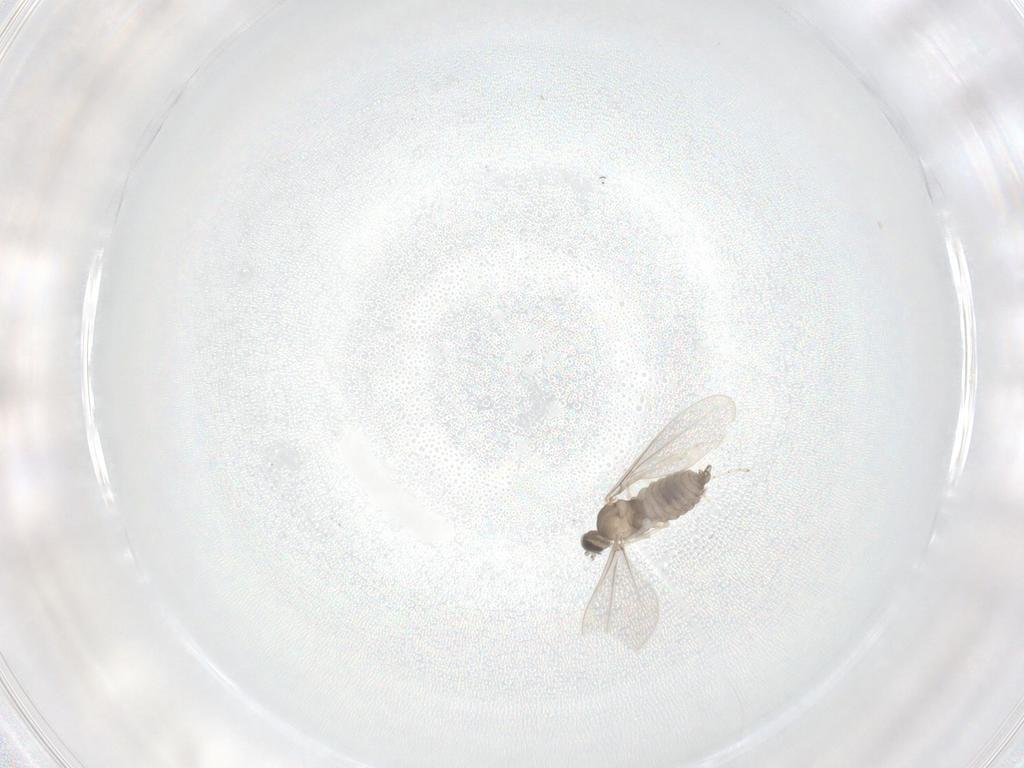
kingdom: Animalia
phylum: Arthropoda
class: Insecta
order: Diptera
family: Cecidomyiidae
